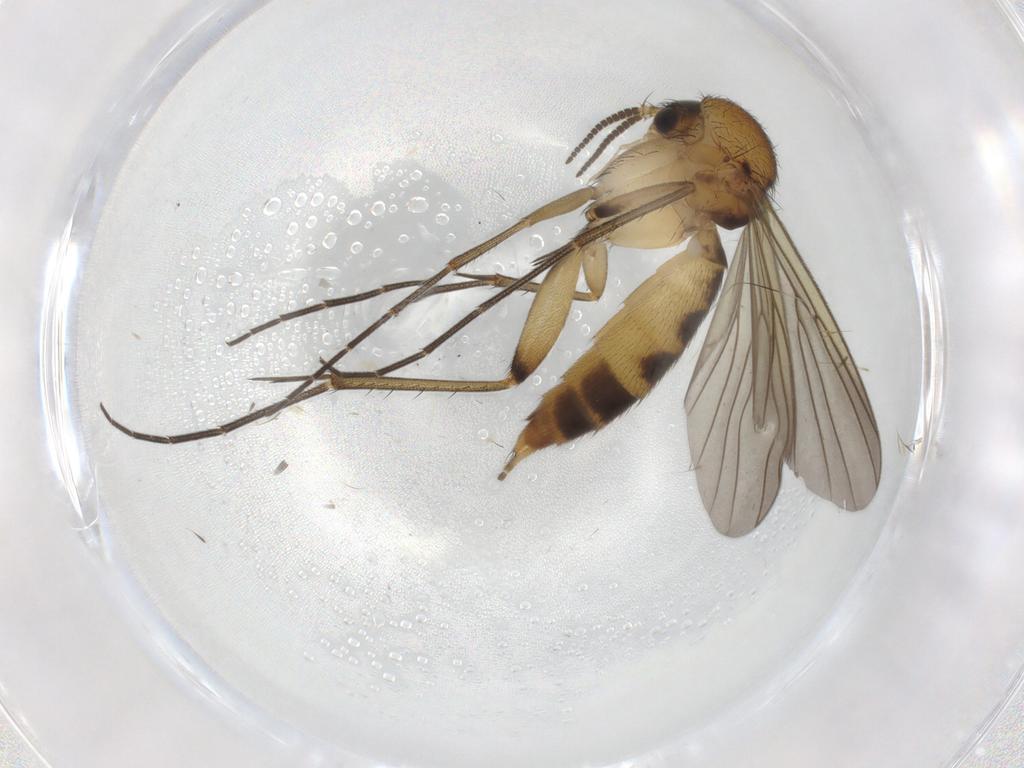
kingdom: Animalia
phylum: Arthropoda
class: Insecta
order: Diptera
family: Mycetophilidae
